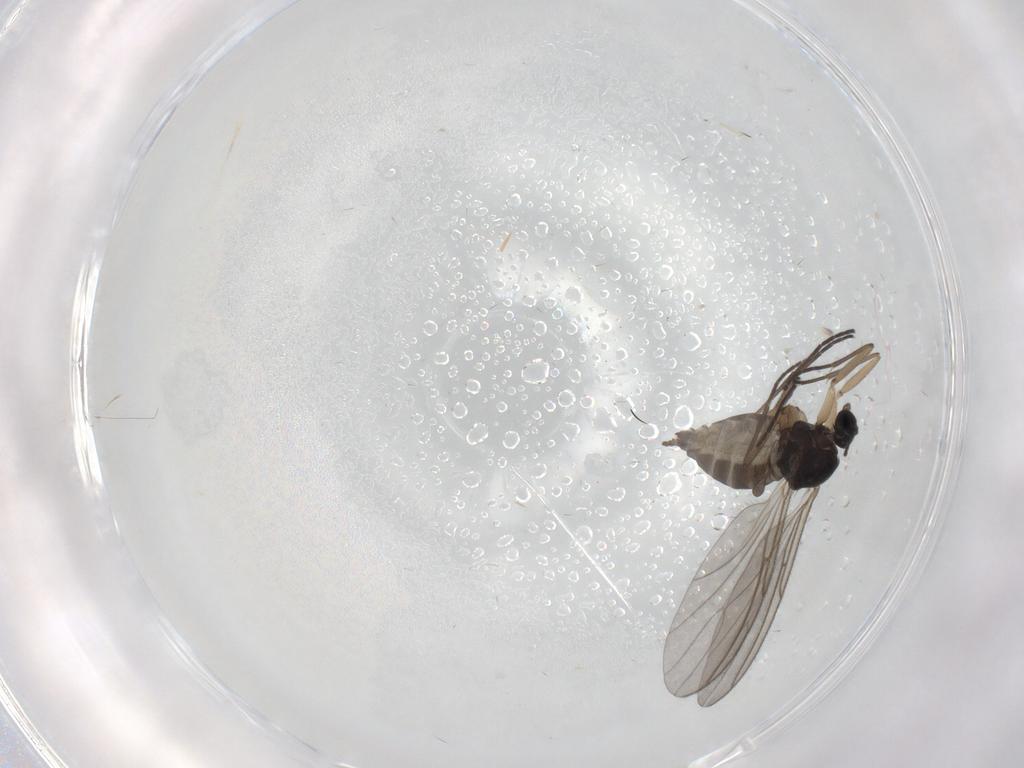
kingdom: Animalia
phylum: Arthropoda
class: Insecta
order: Diptera
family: Sciaridae
